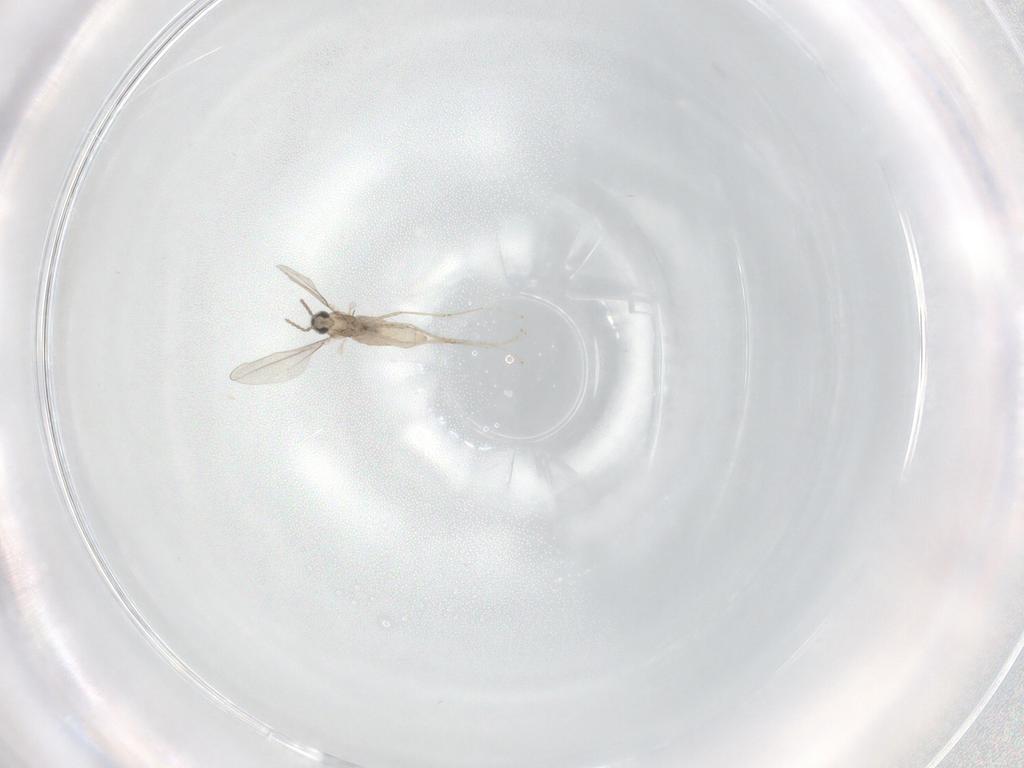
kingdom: Animalia
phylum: Arthropoda
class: Insecta
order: Diptera
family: Cecidomyiidae
